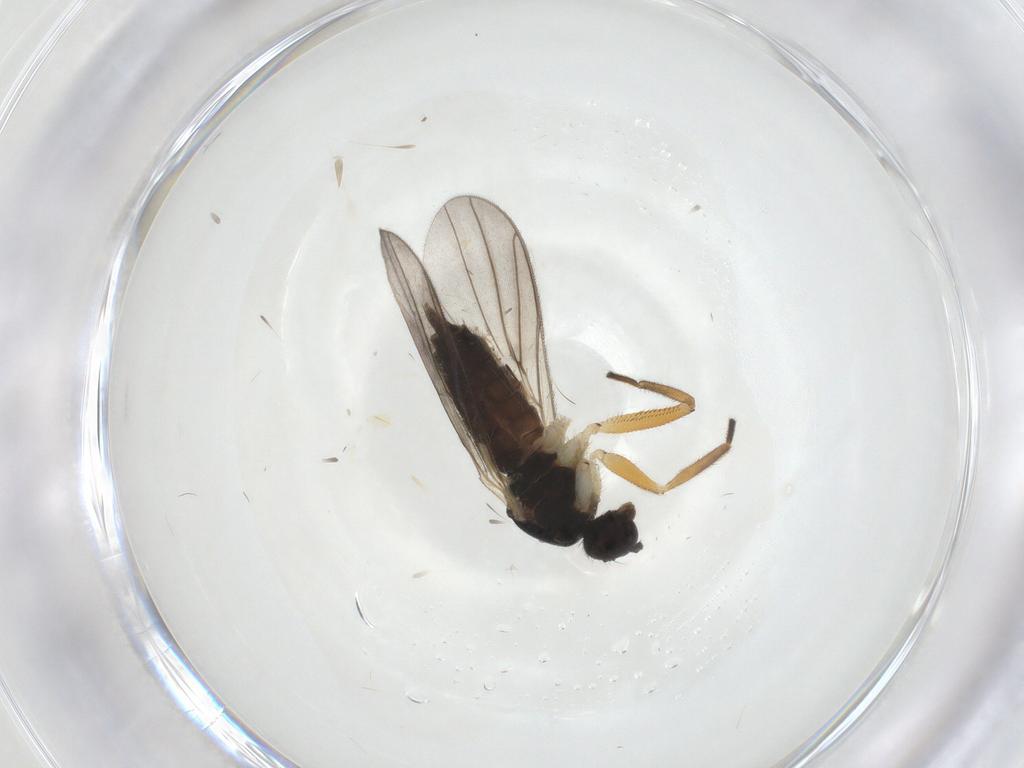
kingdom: Animalia
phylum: Arthropoda
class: Insecta
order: Diptera
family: Hybotidae
